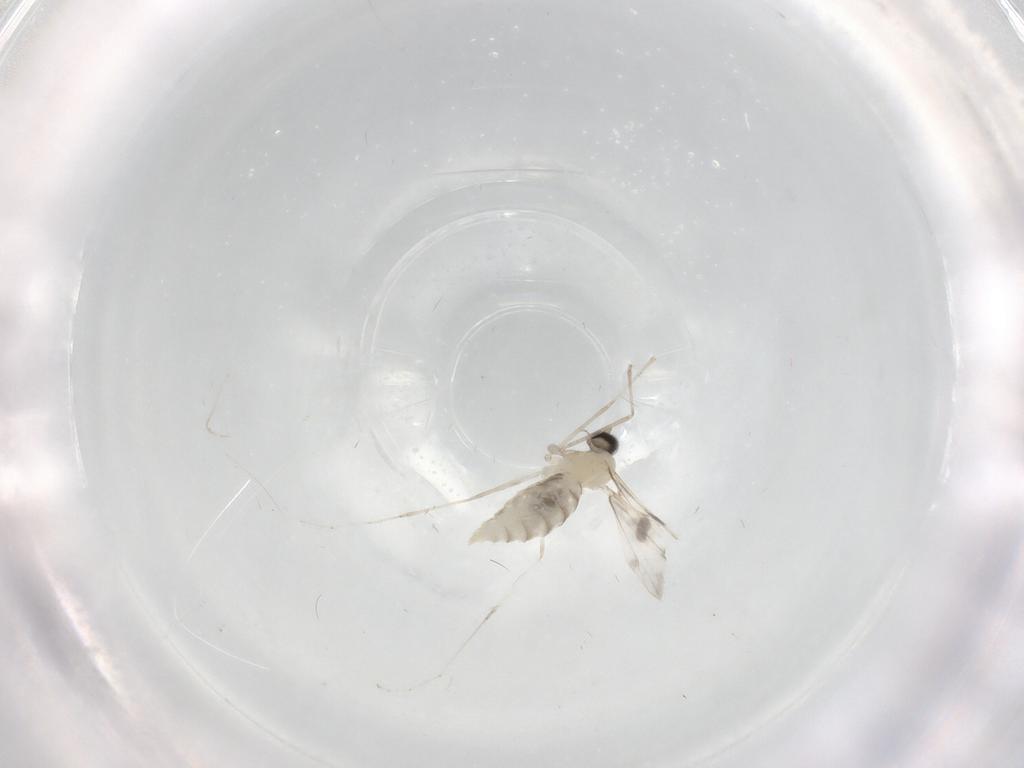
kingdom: Animalia
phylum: Arthropoda
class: Insecta
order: Diptera
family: Cecidomyiidae
